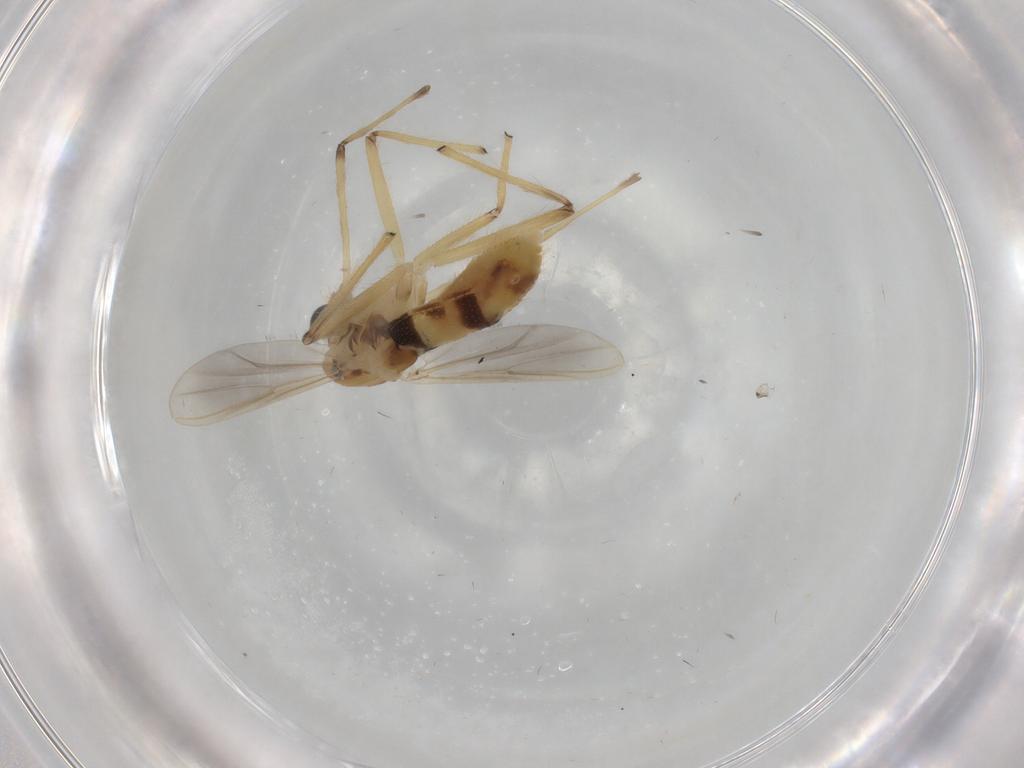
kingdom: Animalia
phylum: Arthropoda
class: Insecta
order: Diptera
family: Chironomidae
